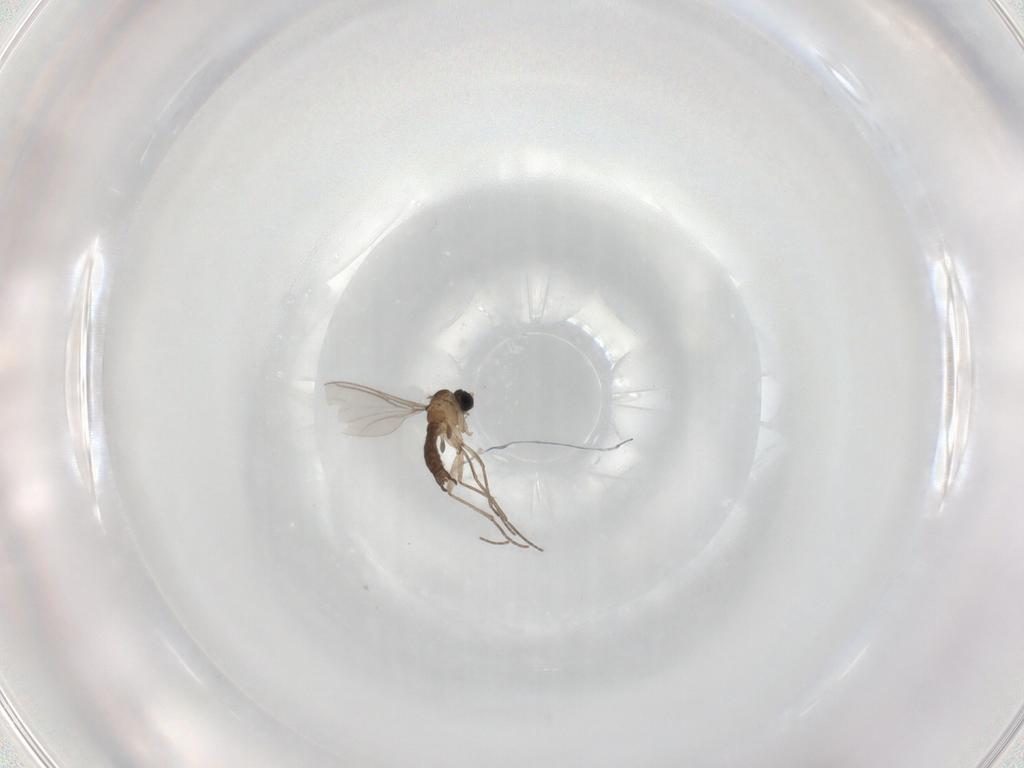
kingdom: Animalia
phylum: Arthropoda
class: Insecta
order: Diptera
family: Sciaridae
